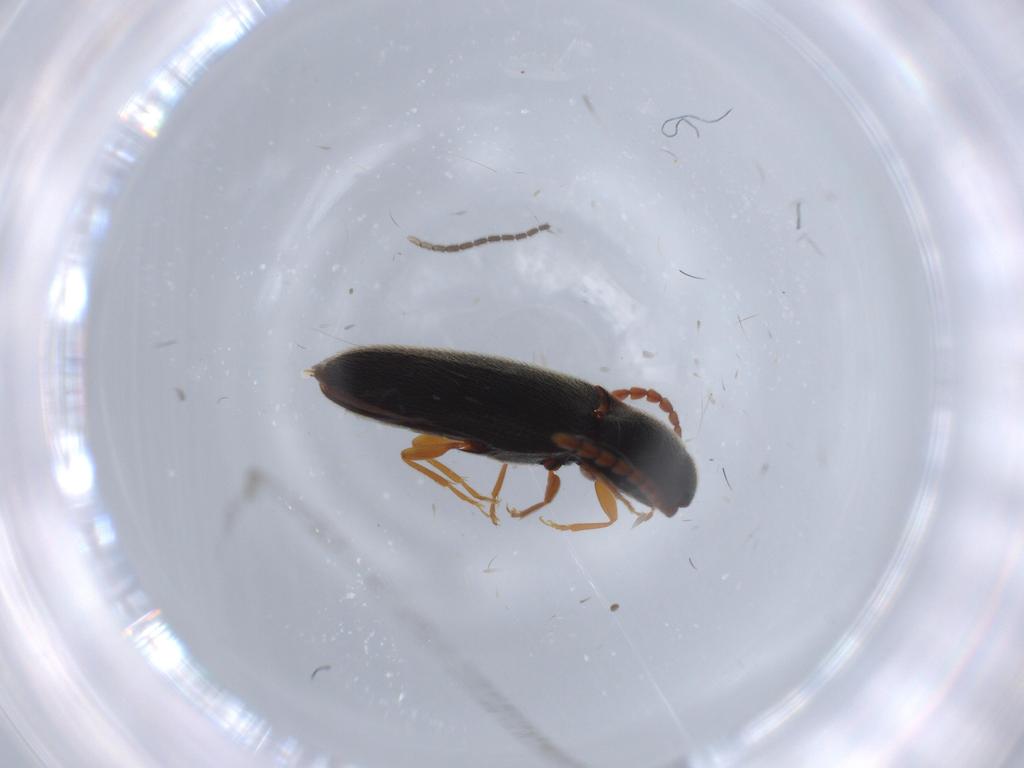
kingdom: Animalia
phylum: Arthropoda
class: Insecta
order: Coleoptera
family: Elateridae
